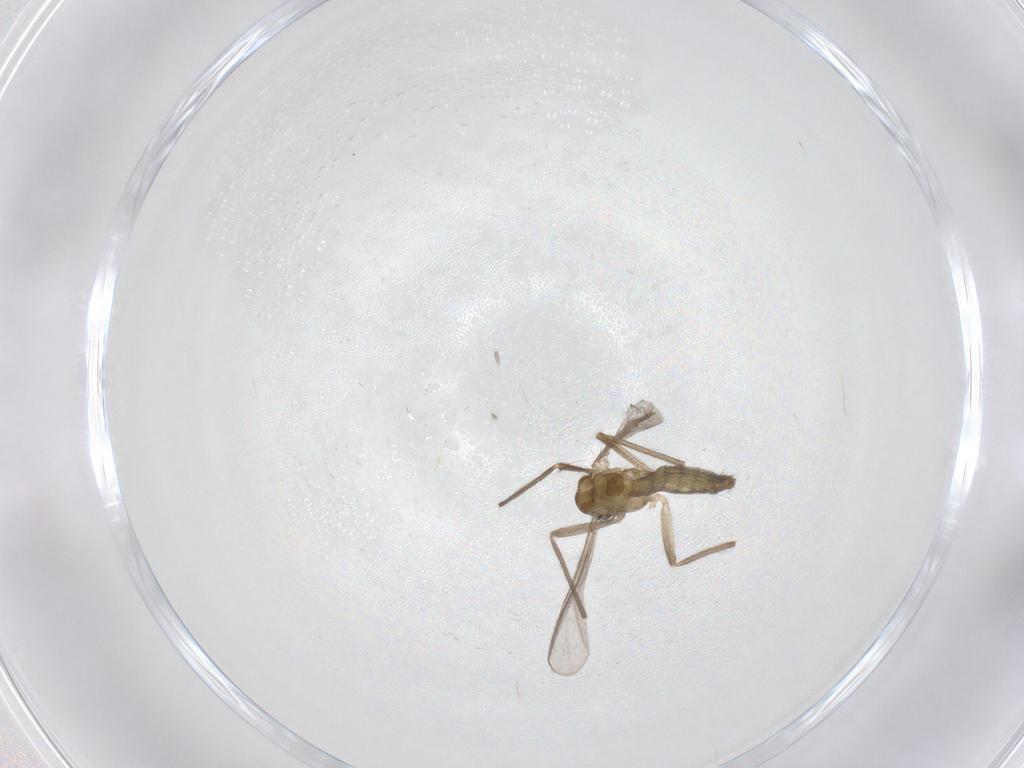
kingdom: Animalia
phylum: Arthropoda
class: Insecta
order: Diptera
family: Chironomidae
